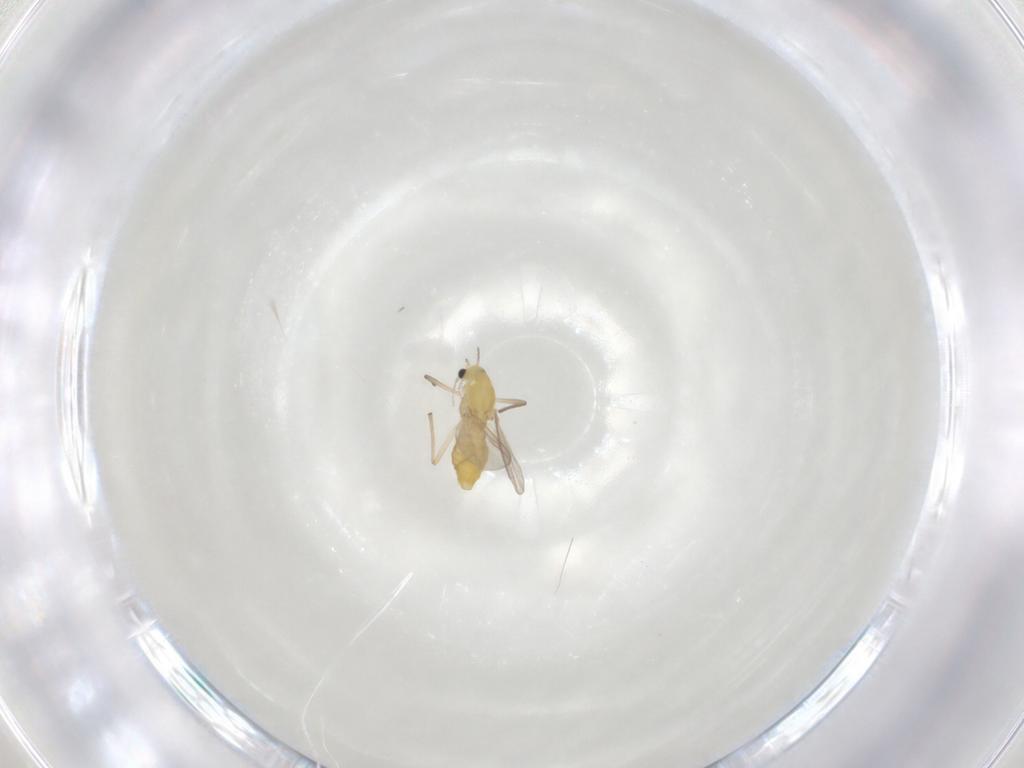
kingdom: Animalia
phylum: Arthropoda
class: Insecta
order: Diptera
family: Chironomidae
